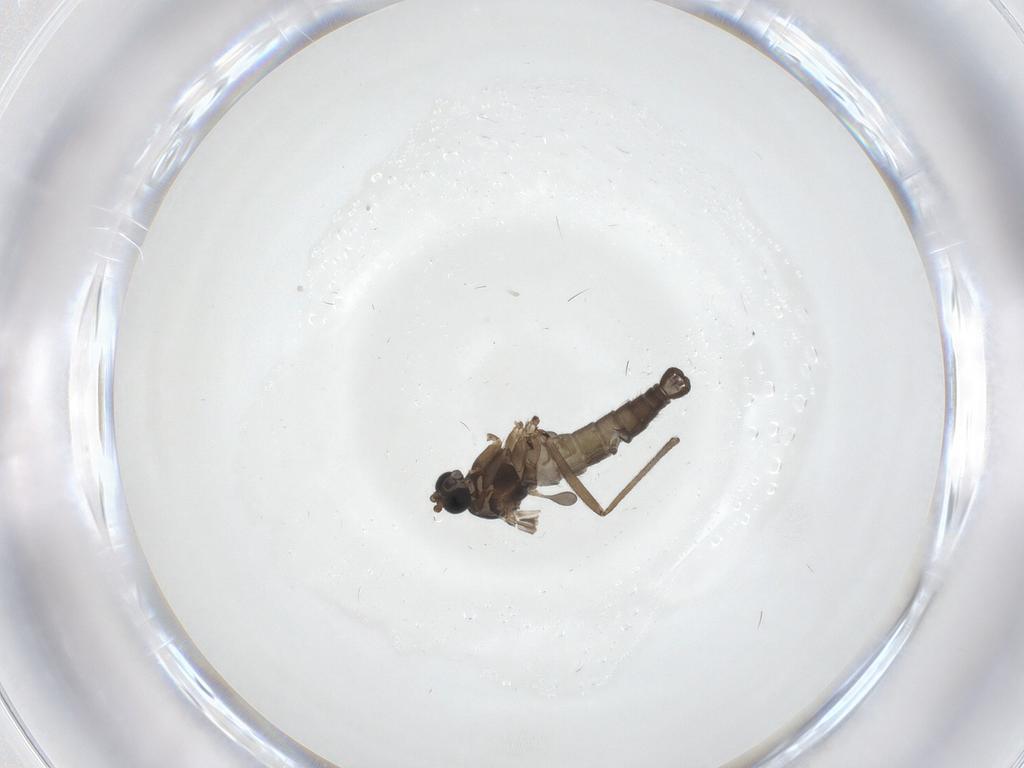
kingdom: Animalia
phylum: Arthropoda
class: Insecta
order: Diptera
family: Sciaridae
